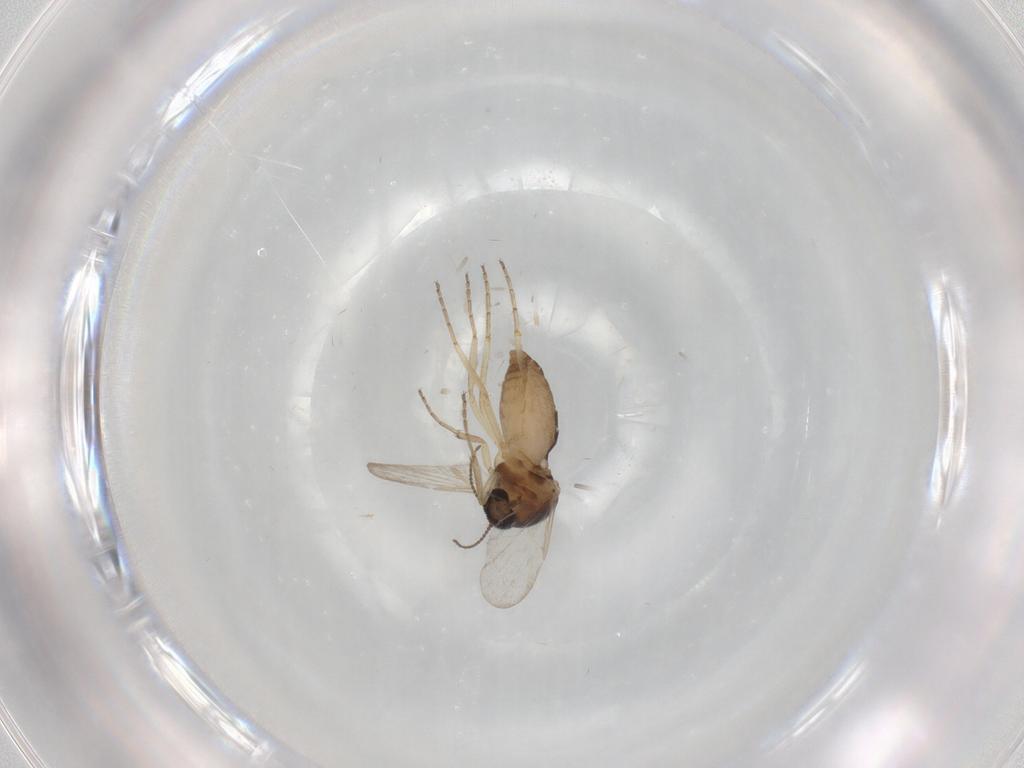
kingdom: Animalia
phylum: Arthropoda
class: Insecta
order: Diptera
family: Ceratopogonidae
